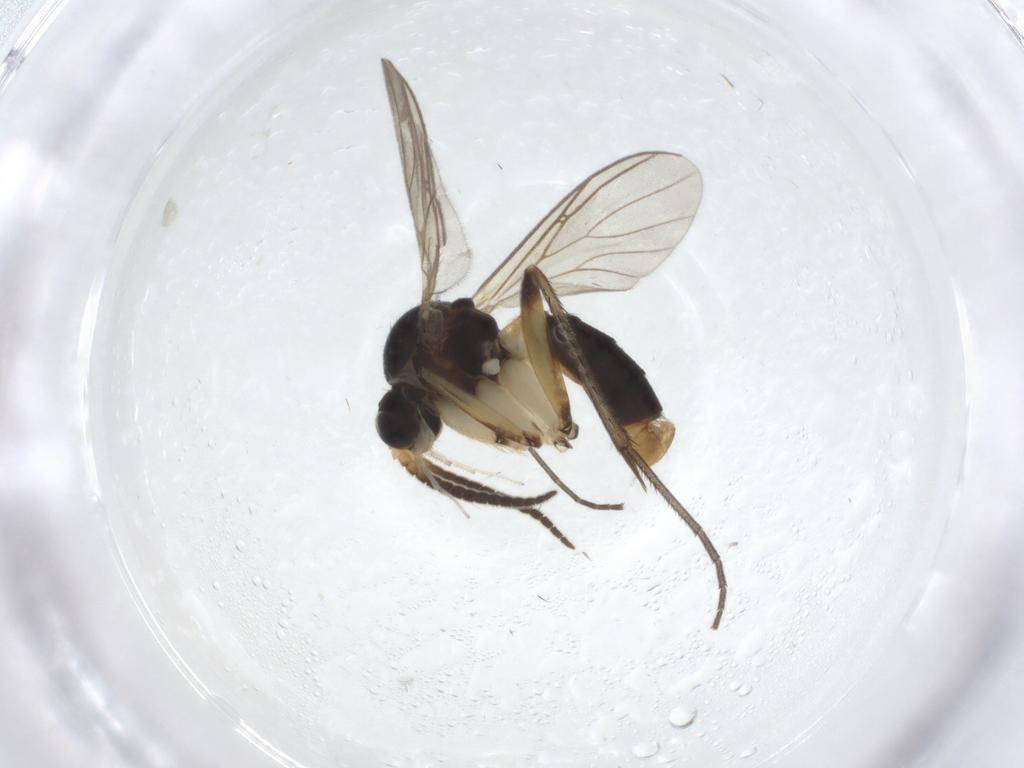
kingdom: Animalia
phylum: Arthropoda
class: Insecta
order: Diptera
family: Mycetophilidae
